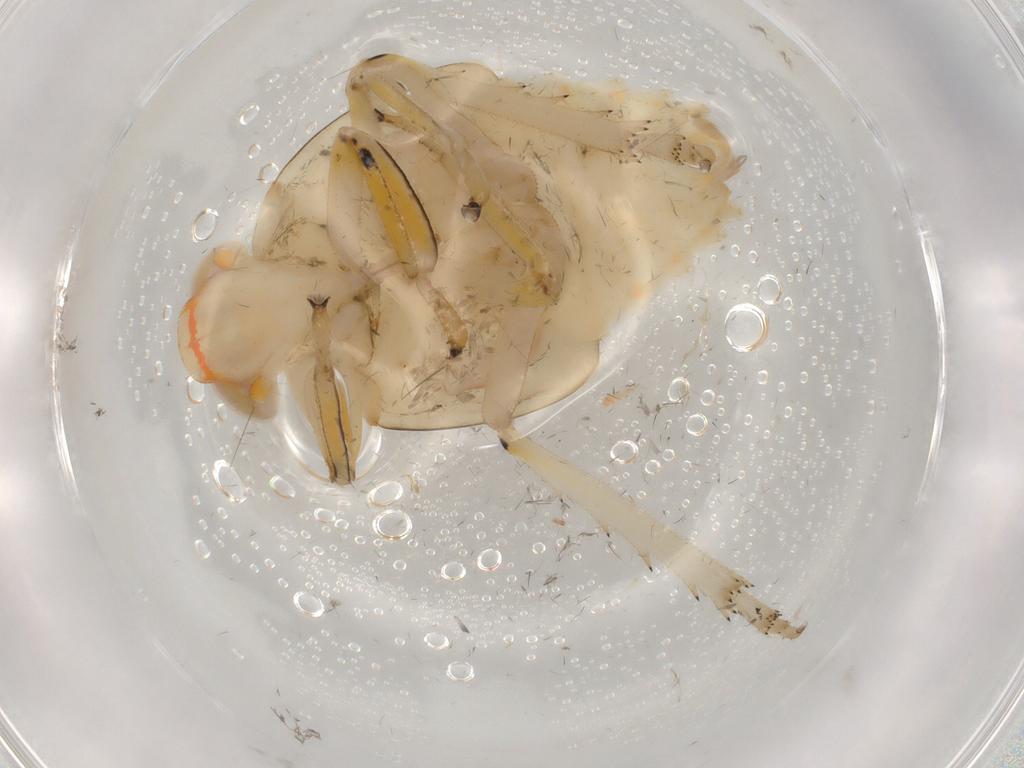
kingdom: Animalia
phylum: Arthropoda
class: Insecta
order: Hemiptera
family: Issidae
